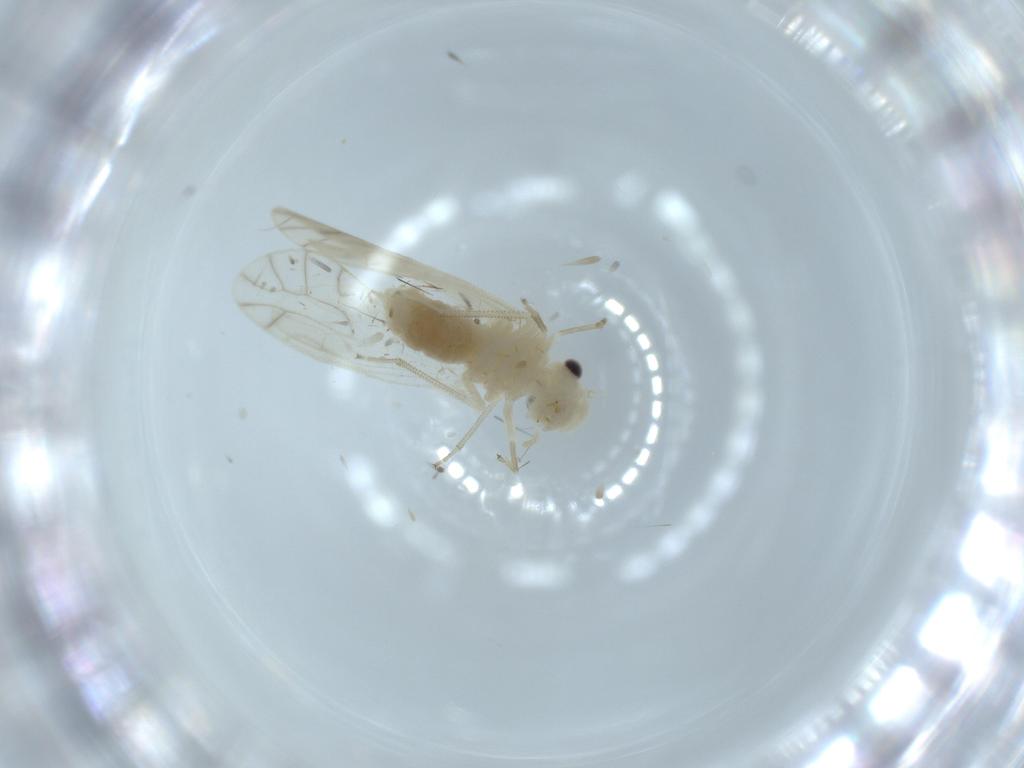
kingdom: Animalia
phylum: Arthropoda
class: Insecta
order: Psocodea
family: Caeciliusidae
